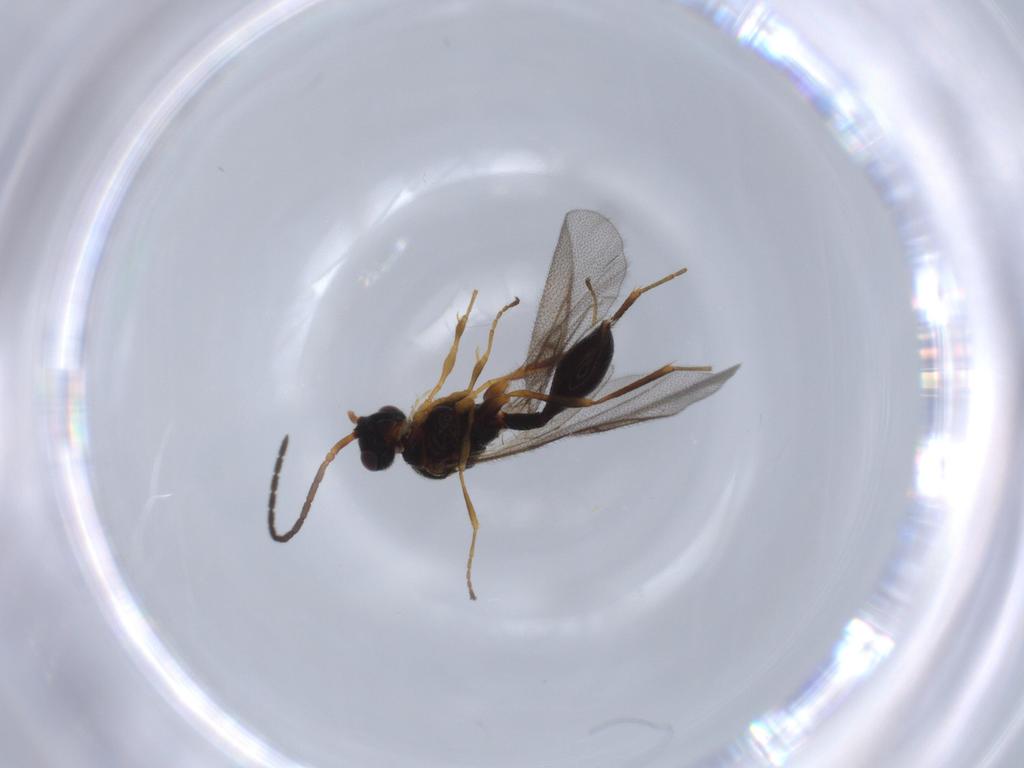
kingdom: Animalia
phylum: Arthropoda
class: Insecta
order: Hymenoptera
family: Diapriidae
